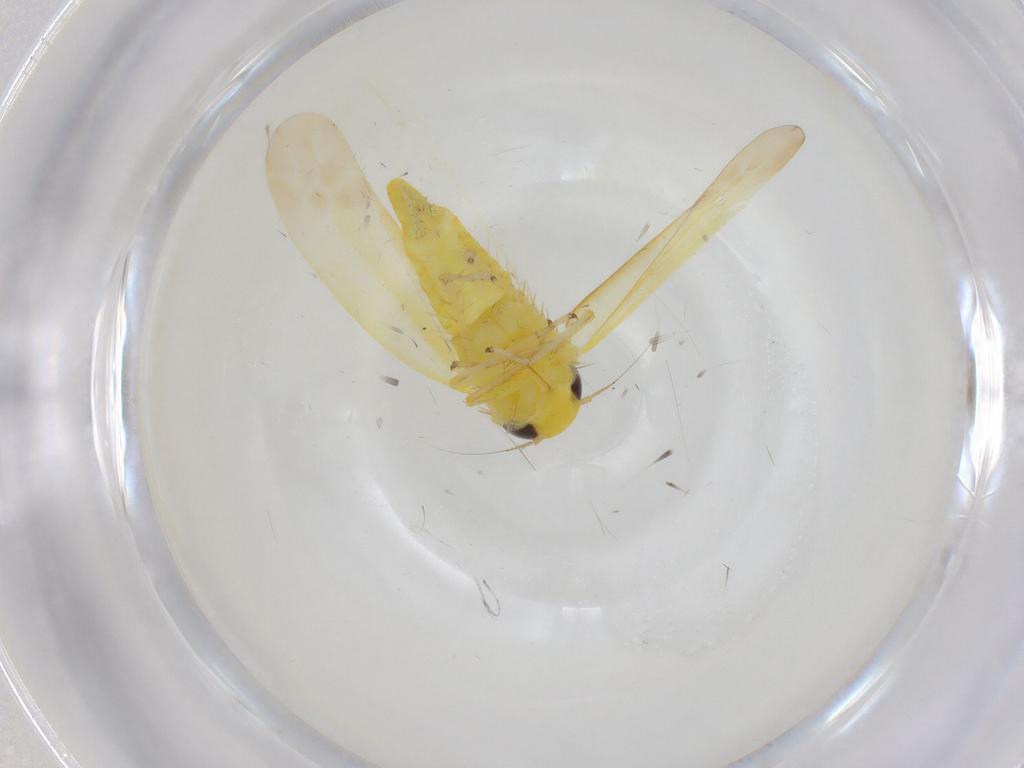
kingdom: Animalia
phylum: Arthropoda
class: Insecta
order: Hemiptera
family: Cicadellidae
